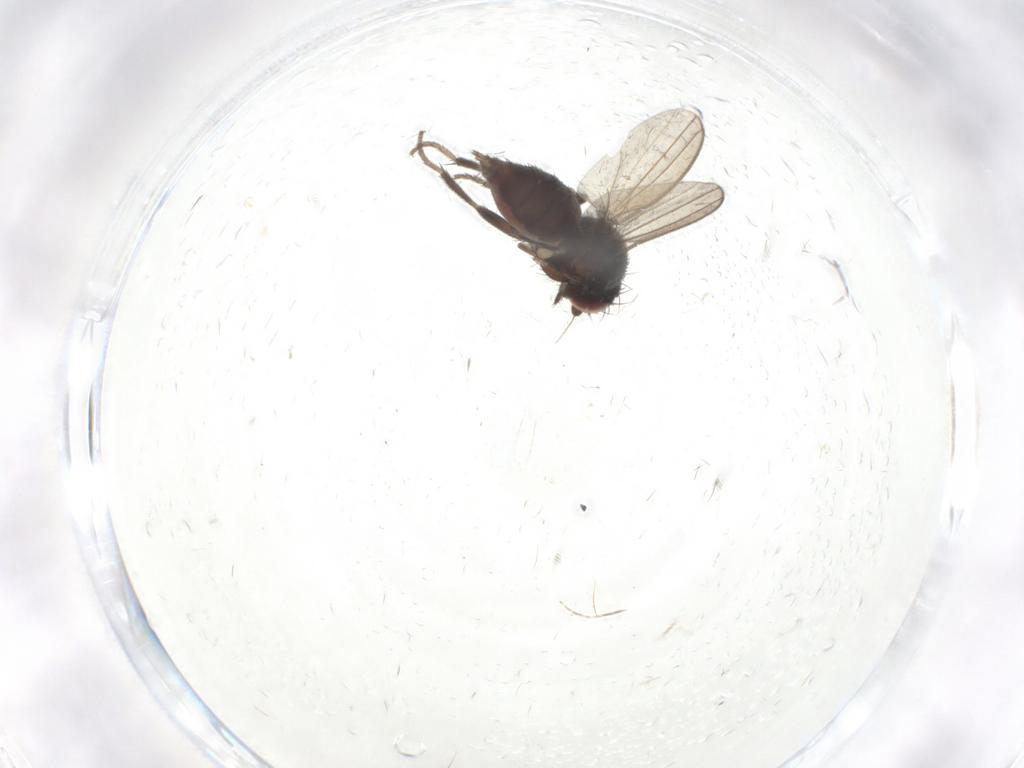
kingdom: Animalia
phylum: Arthropoda
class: Insecta
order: Diptera
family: Milichiidae
